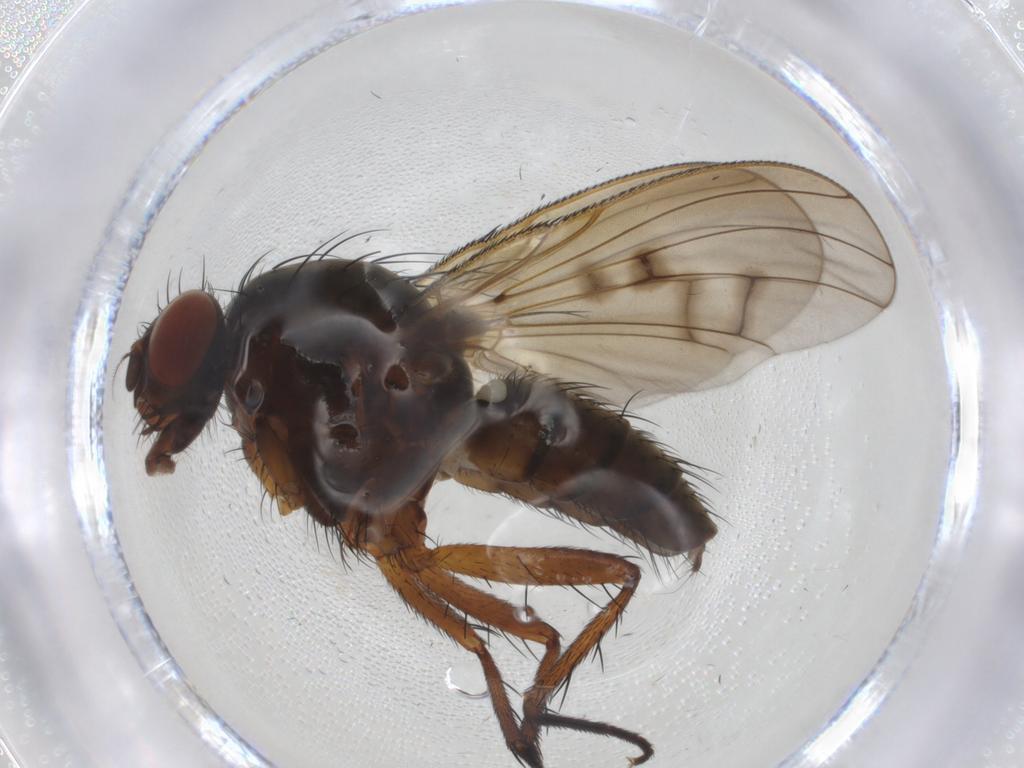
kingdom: Animalia
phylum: Arthropoda
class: Insecta
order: Diptera
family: Anthomyiidae
